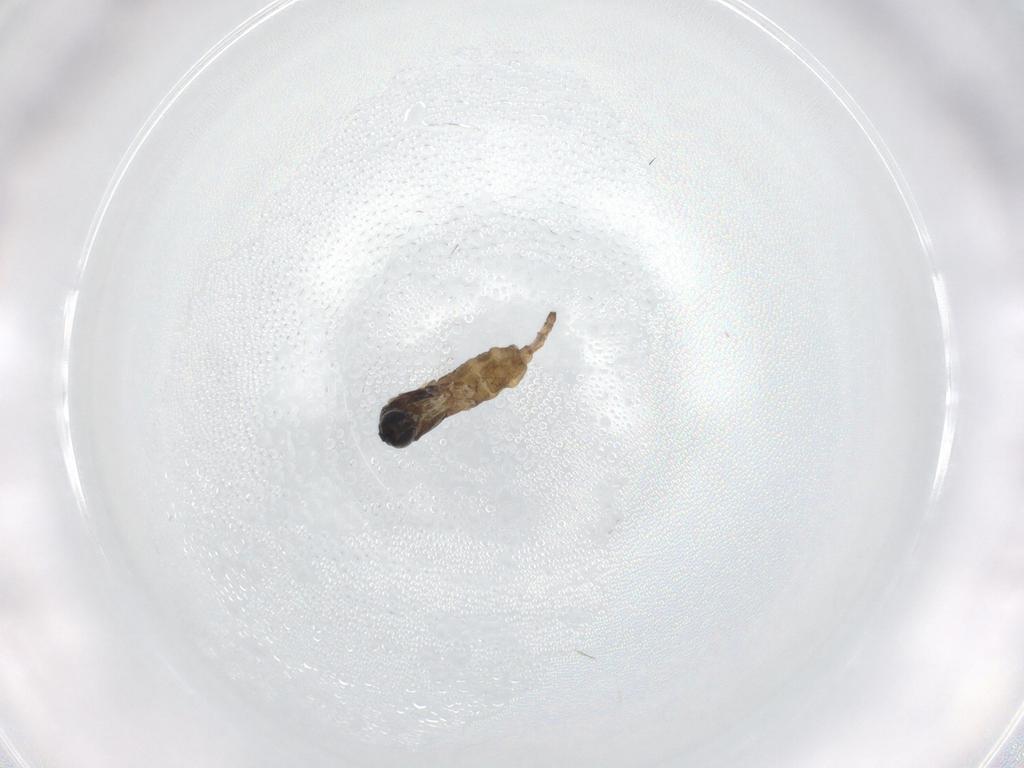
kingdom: Animalia
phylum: Arthropoda
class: Insecta
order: Diptera
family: Sciaridae
